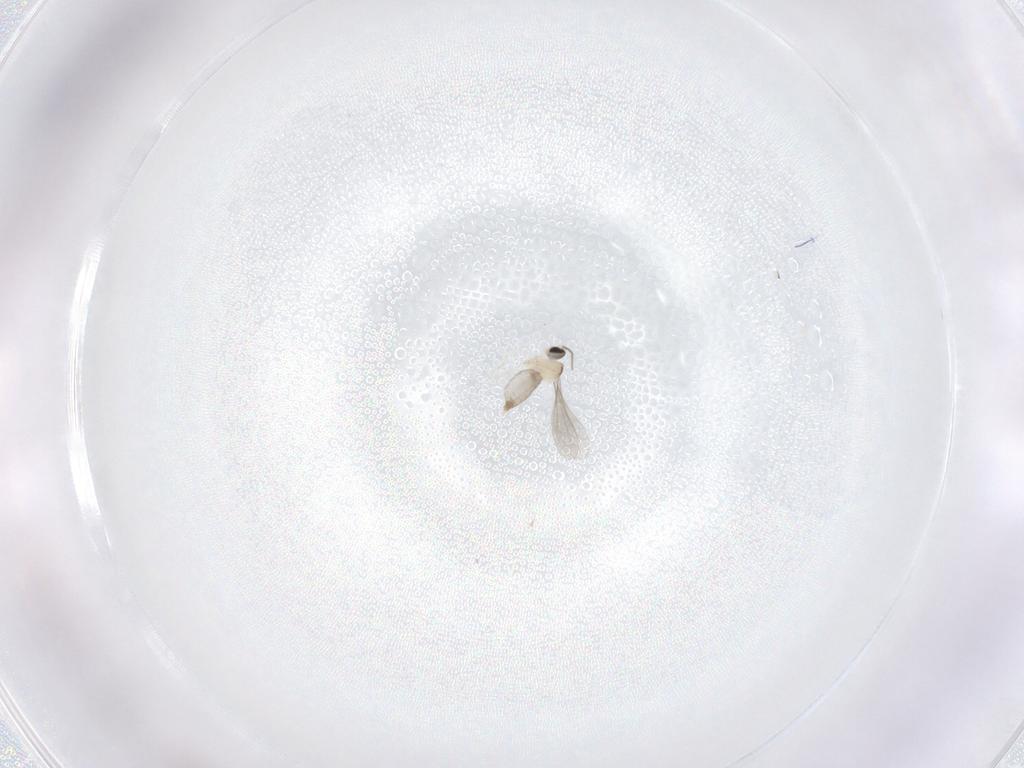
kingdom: Animalia
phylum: Arthropoda
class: Insecta
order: Diptera
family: Chironomidae
